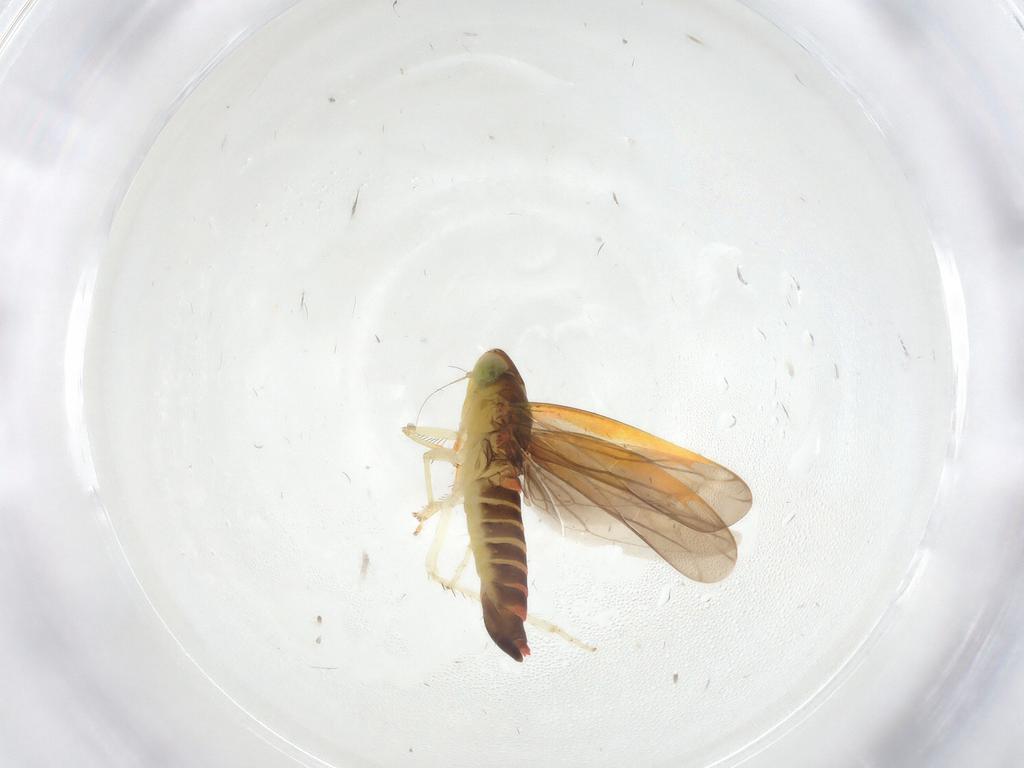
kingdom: Animalia
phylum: Arthropoda
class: Insecta
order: Hemiptera
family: Cicadellidae
